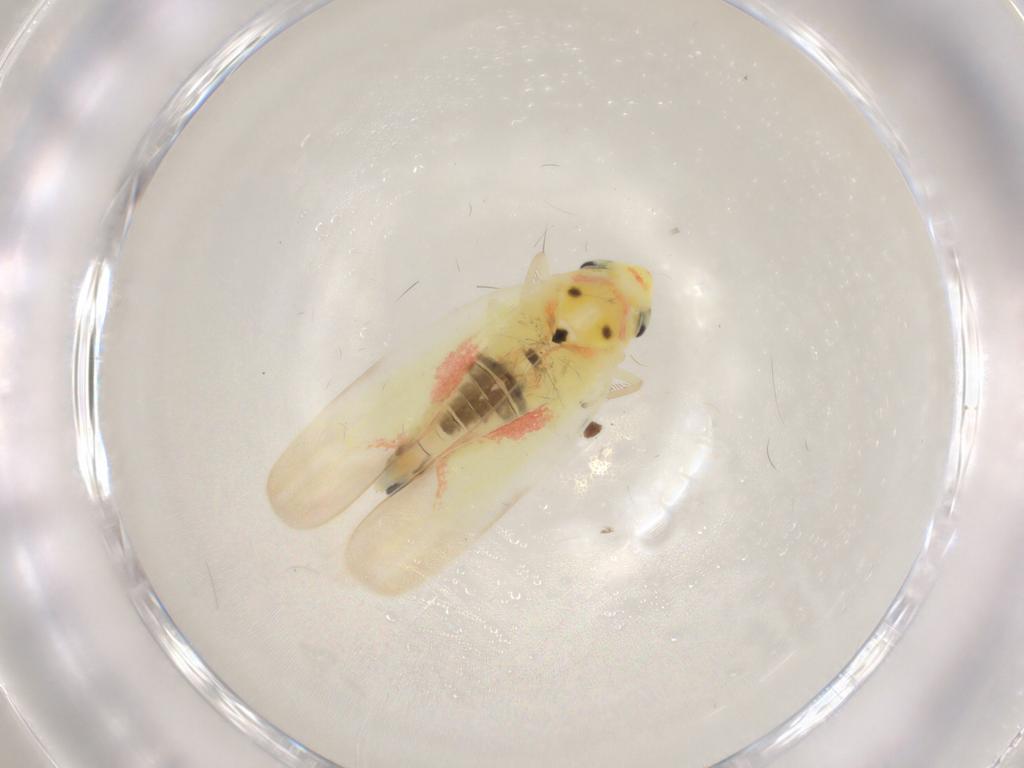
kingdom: Animalia
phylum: Arthropoda
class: Insecta
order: Hemiptera
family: Cicadellidae
